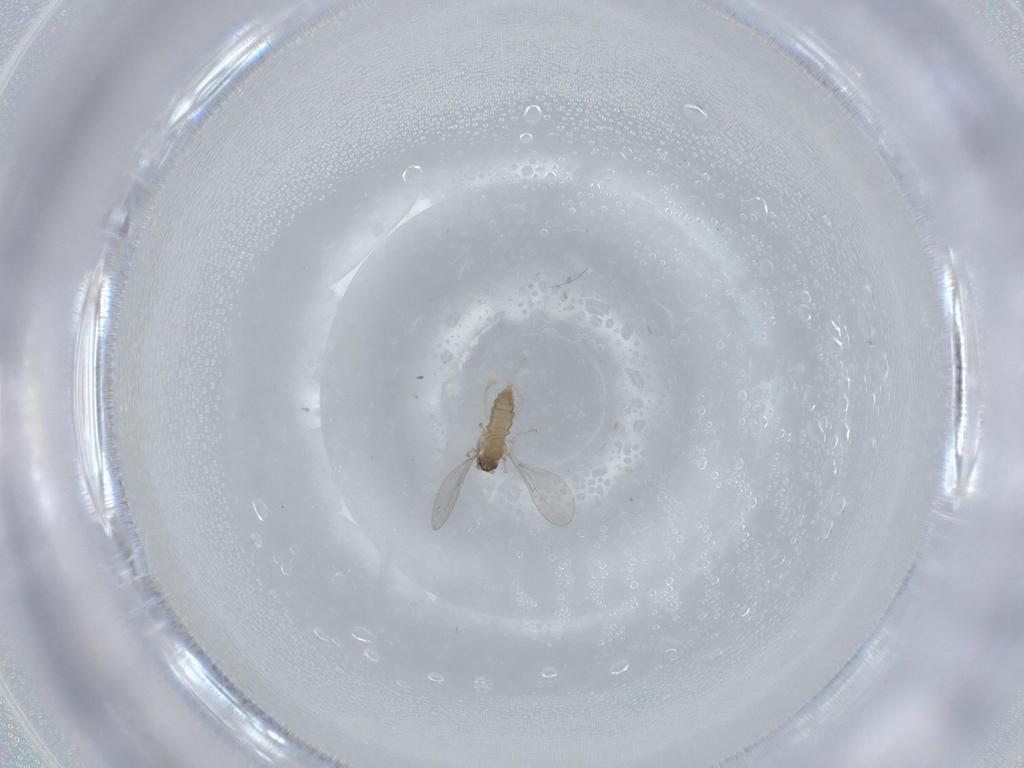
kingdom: Animalia
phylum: Arthropoda
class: Insecta
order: Diptera
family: Cecidomyiidae
